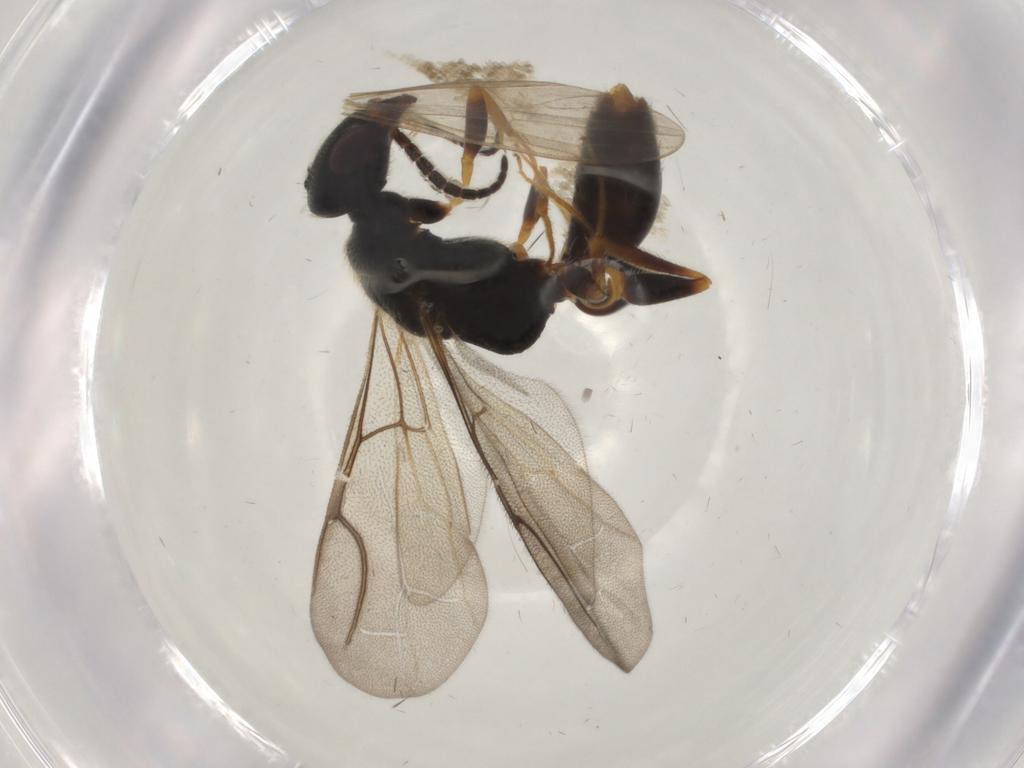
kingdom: Animalia
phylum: Arthropoda
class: Insecta
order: Hymenoptera
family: Bethylidae
